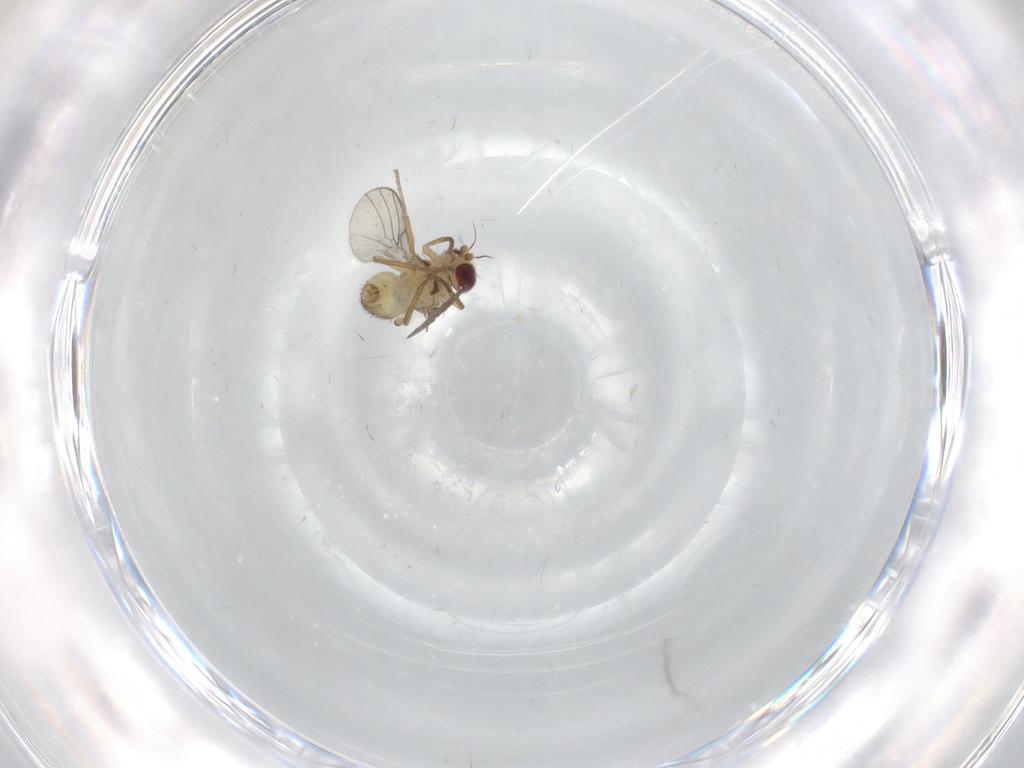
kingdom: Animalia
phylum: Arthropoda
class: Insecta
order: Diptera
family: Agromyzidae
